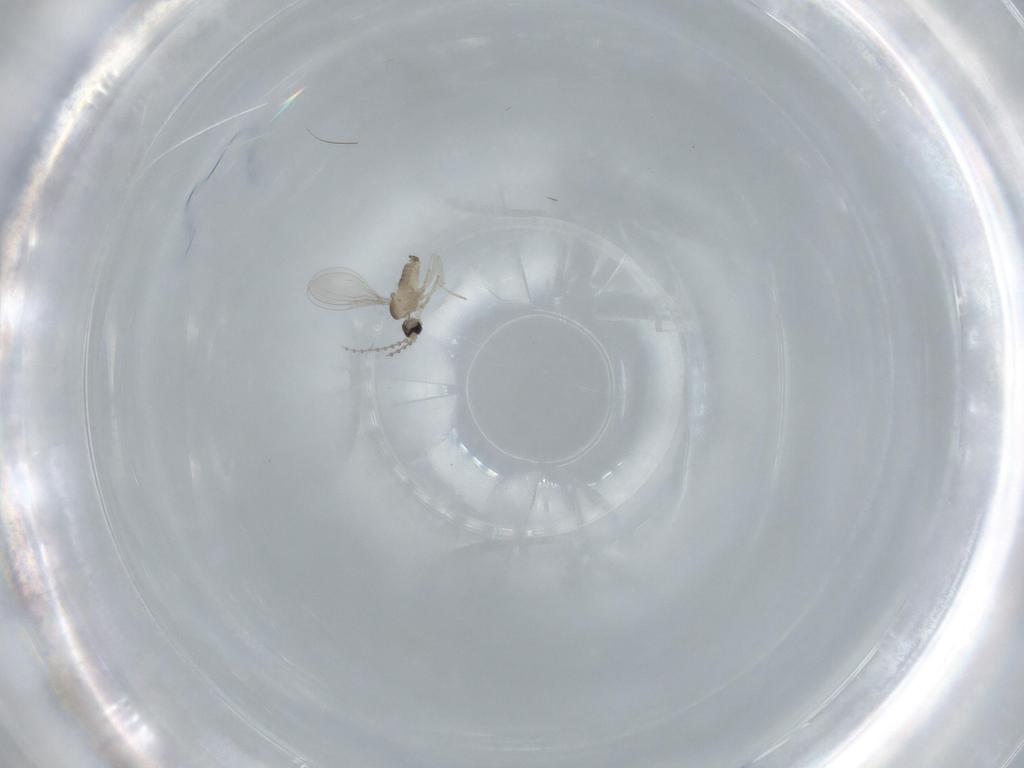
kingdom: Animalia
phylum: Arthropoda
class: Insecta
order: Diptera
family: Cecidomyiidae
